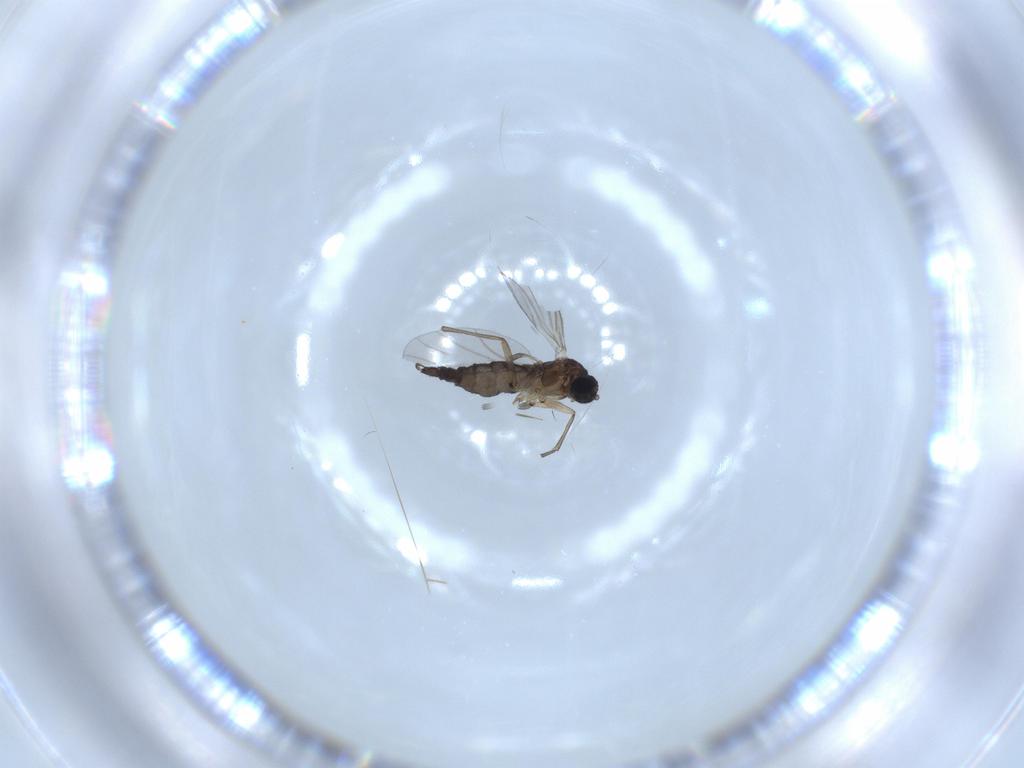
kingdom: Animalia
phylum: Arthropoda
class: Insecta
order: Diptera
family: Sciaridae
